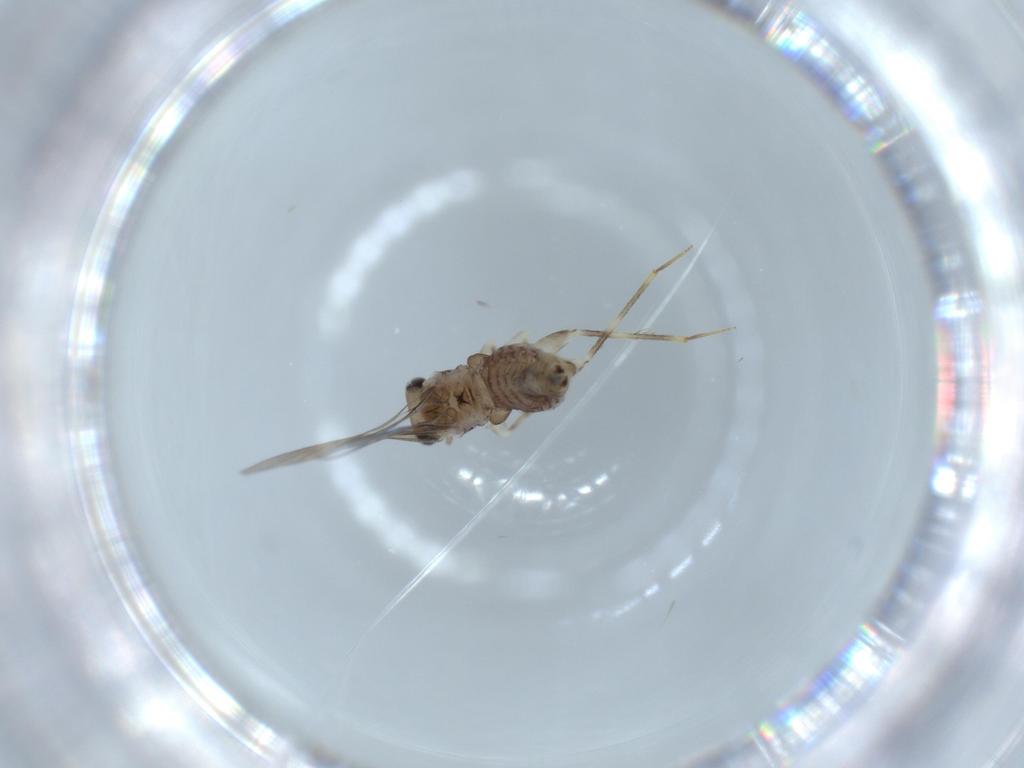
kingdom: Animalia
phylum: Arthropoda
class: Insecta
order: Psocodea
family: Lepidopsocidae
